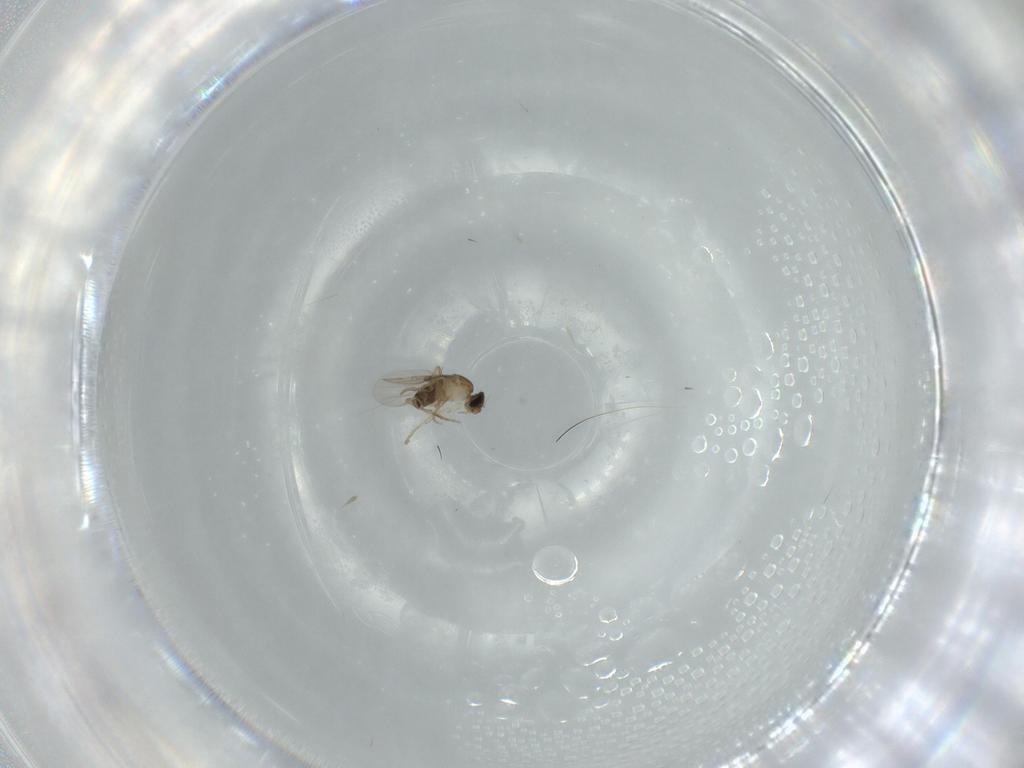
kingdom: Animalia
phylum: Arthropoda
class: Insecta
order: Diptera
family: Phoridae
